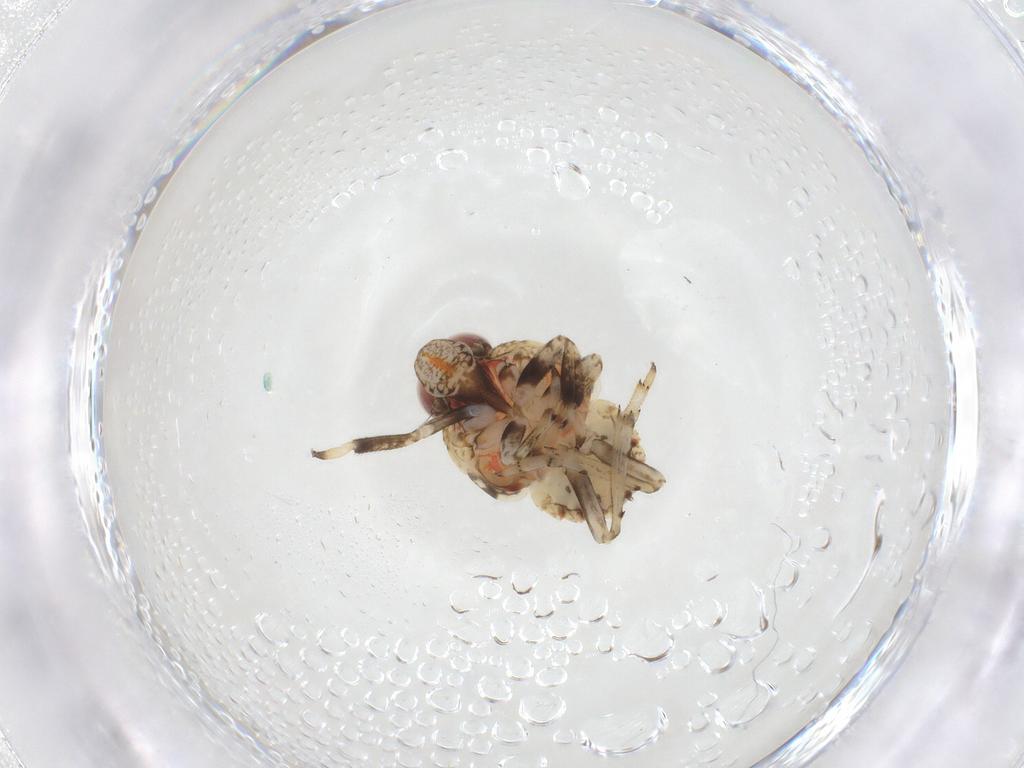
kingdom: Animalia
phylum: Arthropoda
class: Insecta
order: Hemiptera
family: Issidae
